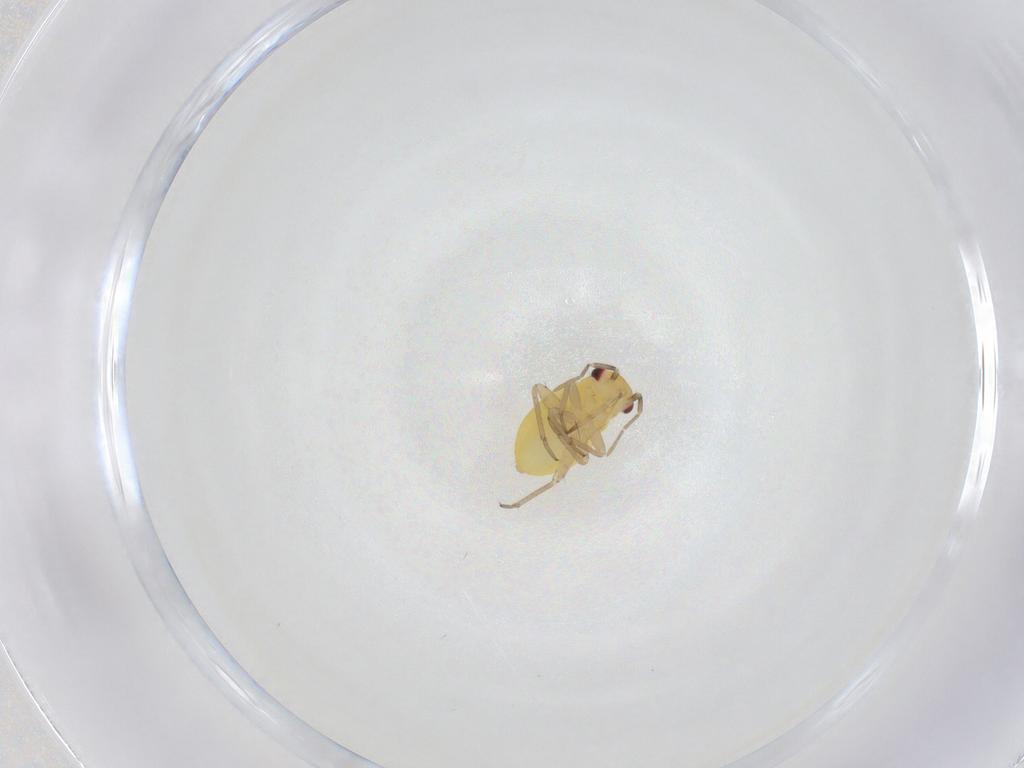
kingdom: Animalia
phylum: Arthropoda
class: Insecta
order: Hemiptera
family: Miridae
